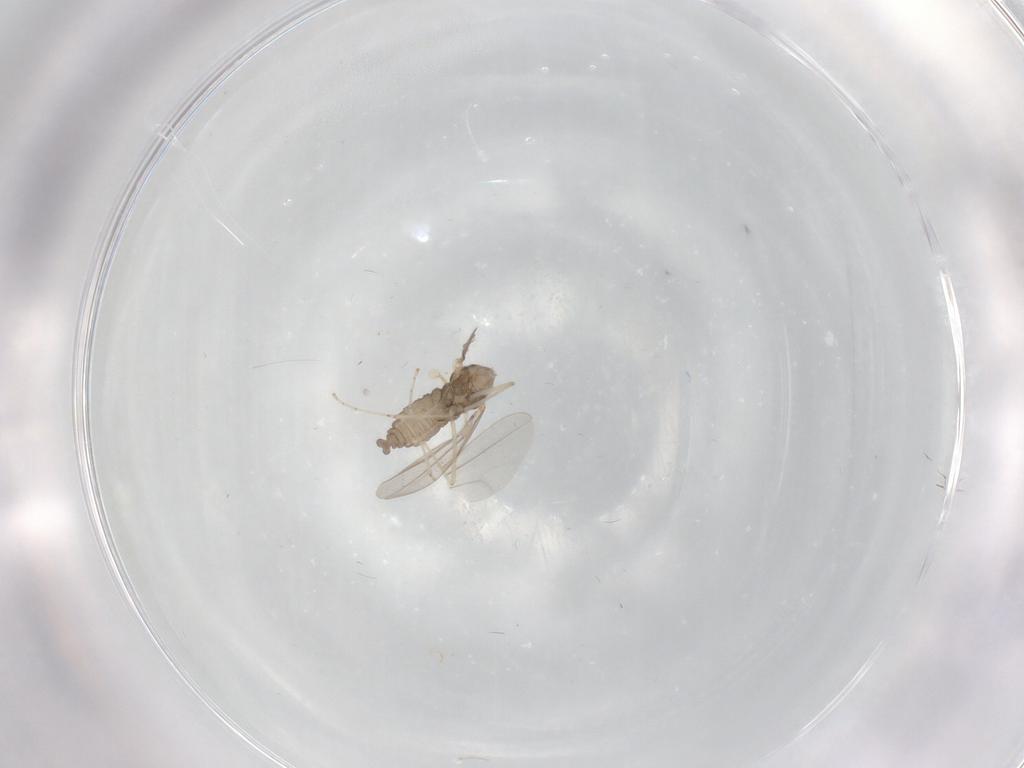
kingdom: Animalia
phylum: Arthropoda
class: Insecta
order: Diptera
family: Cecidomyiidae
